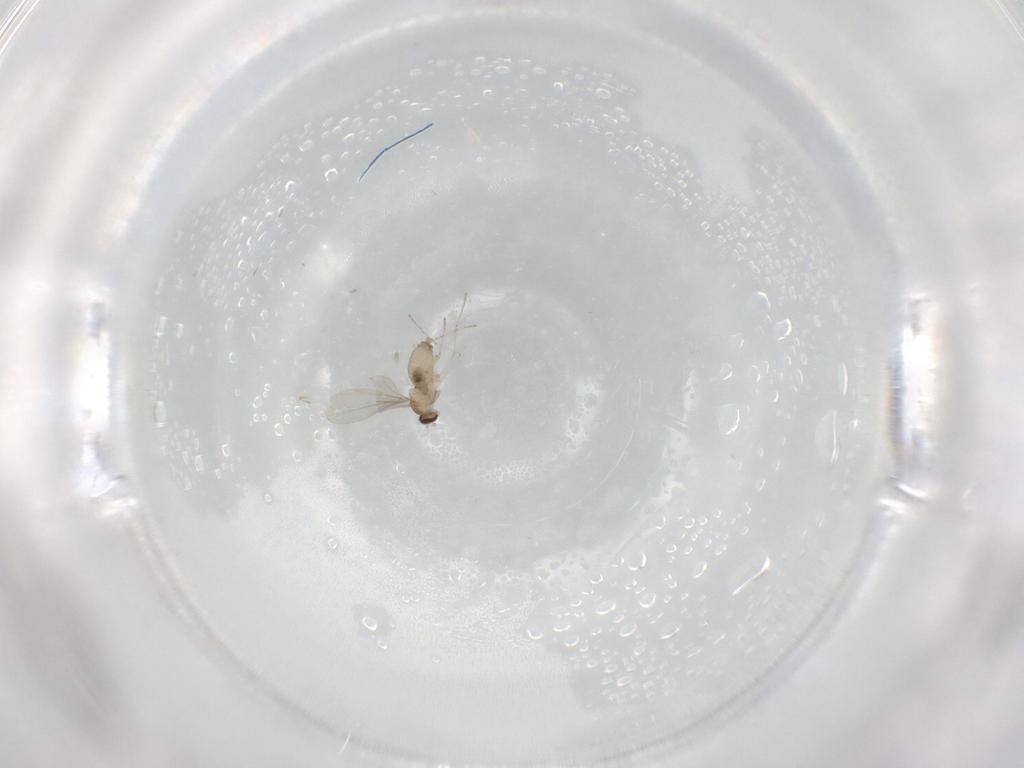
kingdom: Animalia
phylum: Arthropoda
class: Insecta
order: Diptera
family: Cecidomyiidae
